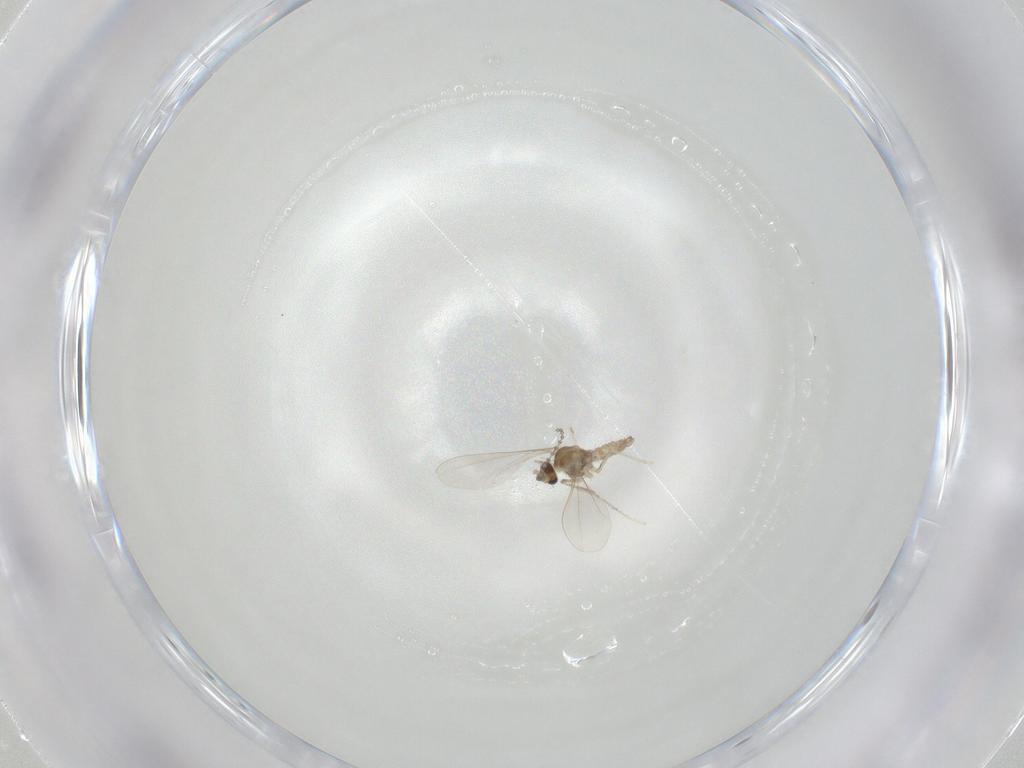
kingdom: Animalia
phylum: Arthropoda
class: Insecta
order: Diptera
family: Cecidomyiidae
